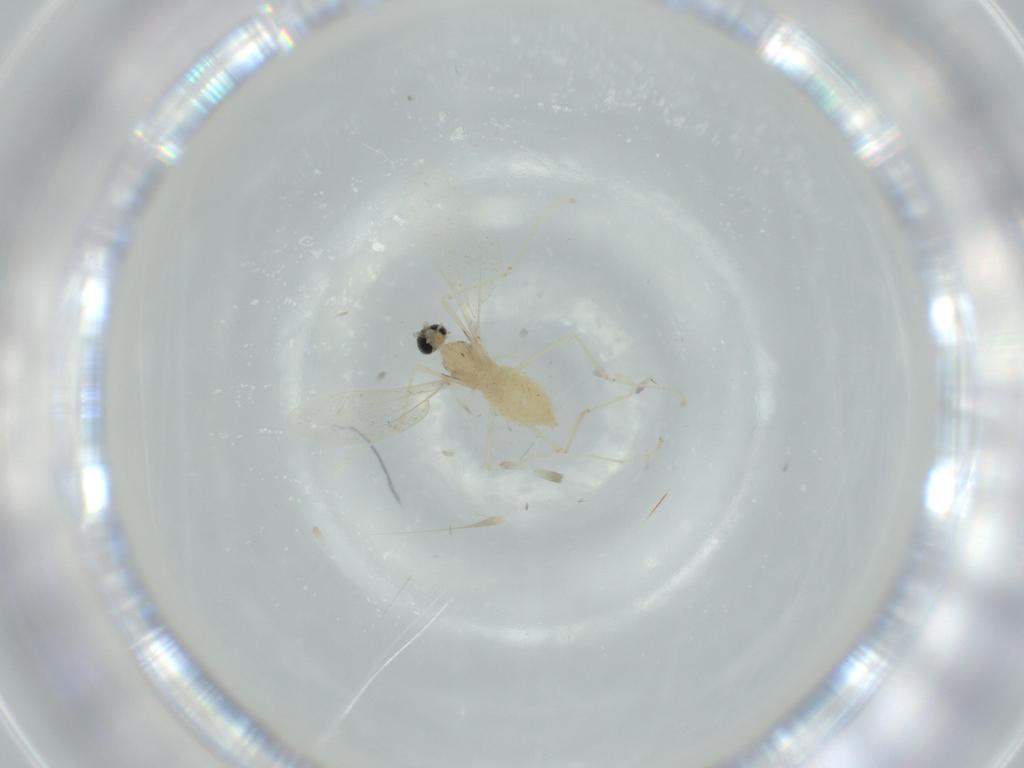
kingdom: Animalia
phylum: Arthropoda
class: Insecta
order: Diptera
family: Cecidomyiidae
